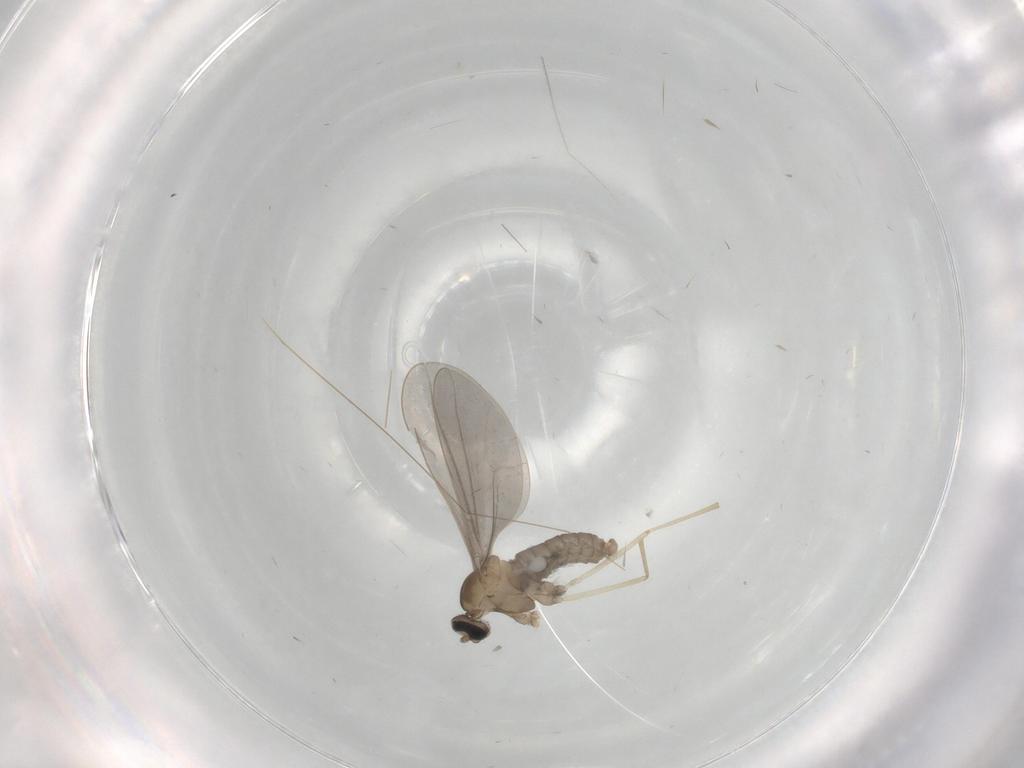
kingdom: Animalia
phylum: Arthropoda
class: Insecta
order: Diptera
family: Cecidomyiidae
